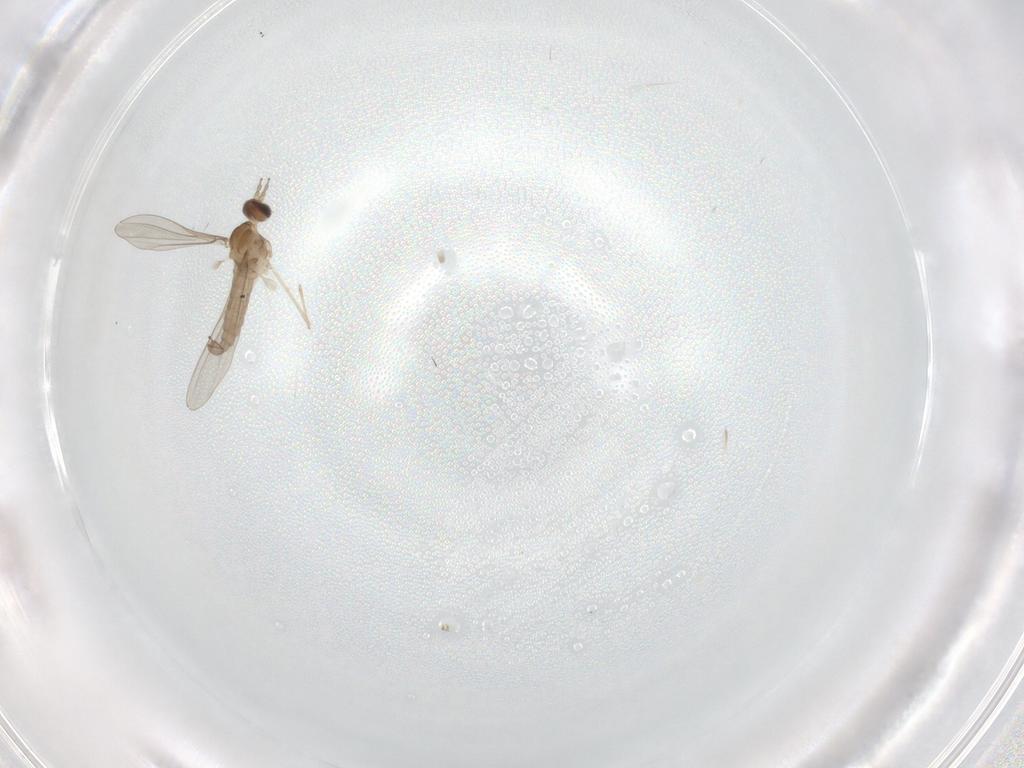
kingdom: Animalia
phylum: Arthropoda
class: Insecta
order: Diptera
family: Cecidomyiidae
